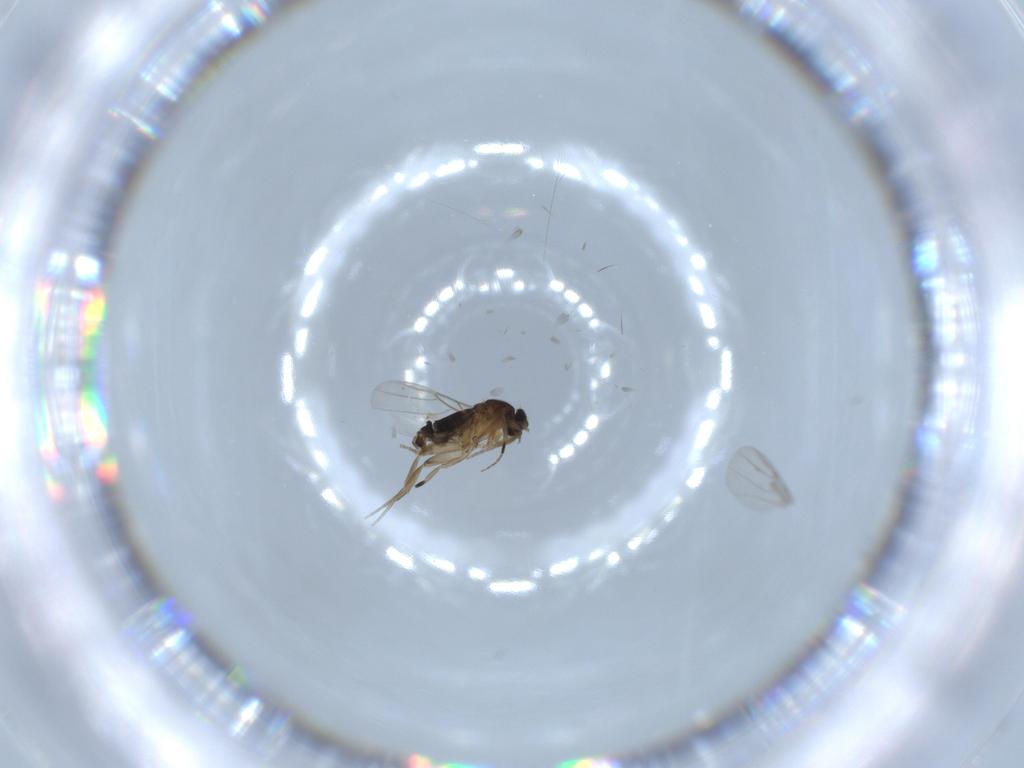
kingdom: Animalia
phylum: Arthropoda
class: Insecta
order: Diptera
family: Phoridae
